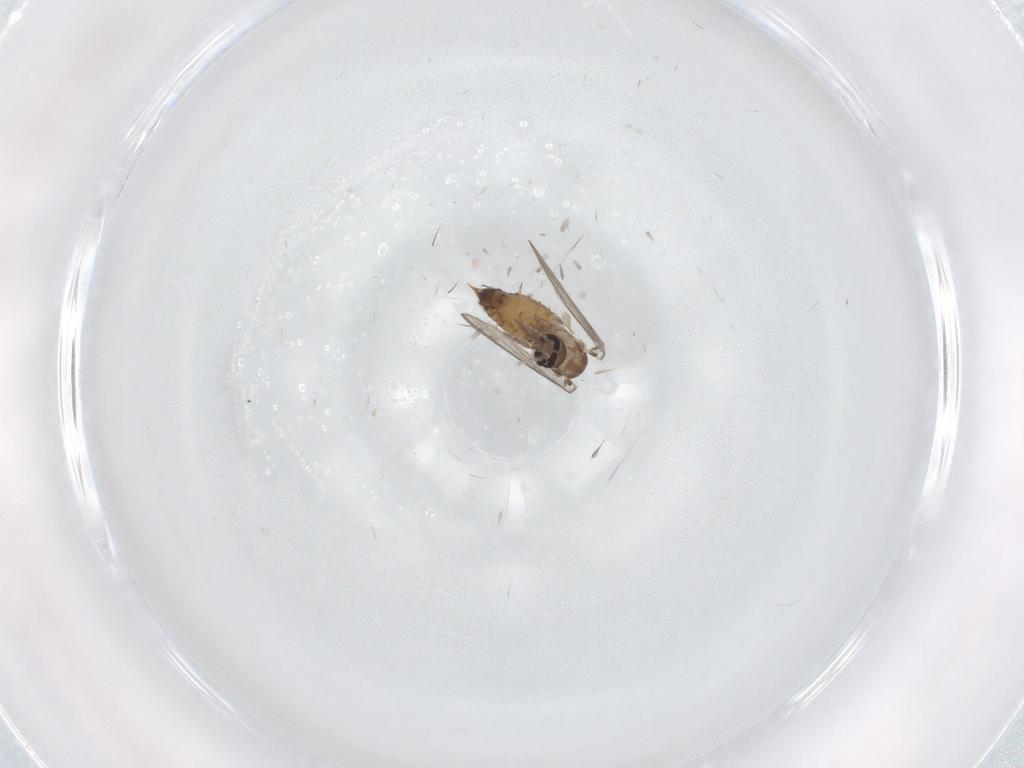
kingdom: Animalia
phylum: Arthropoda
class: Insecta
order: Diptera
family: Psychodidae
